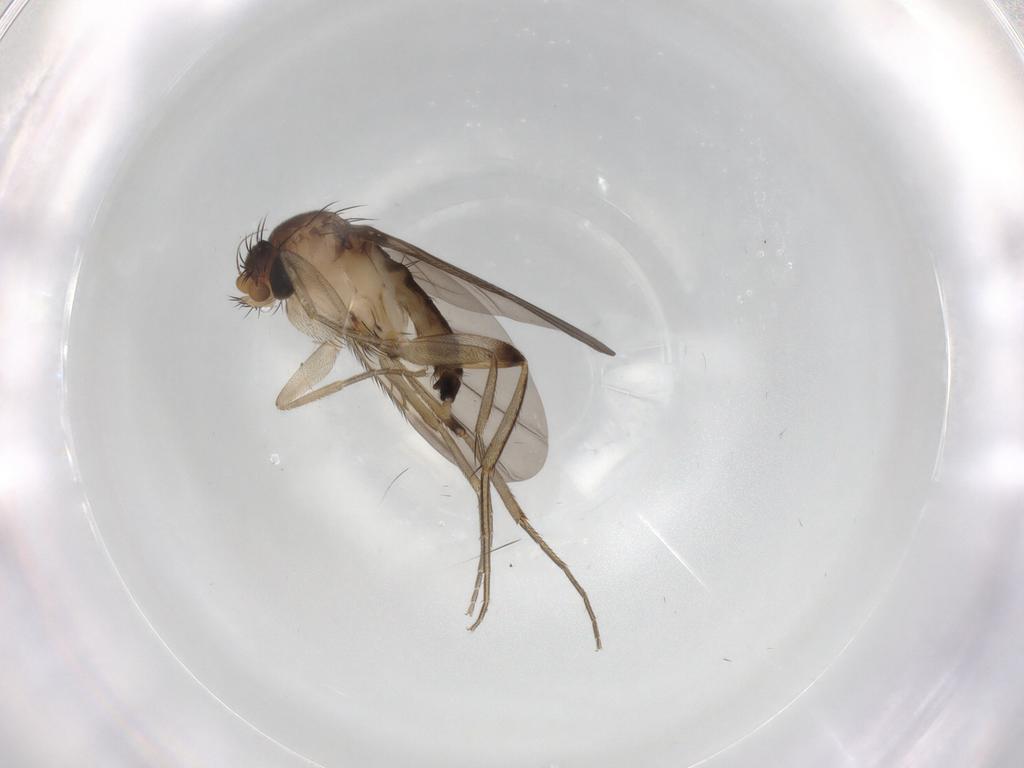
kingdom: Animalia
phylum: Arthropoda
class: Insecta
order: Diptera
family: Phoridae
